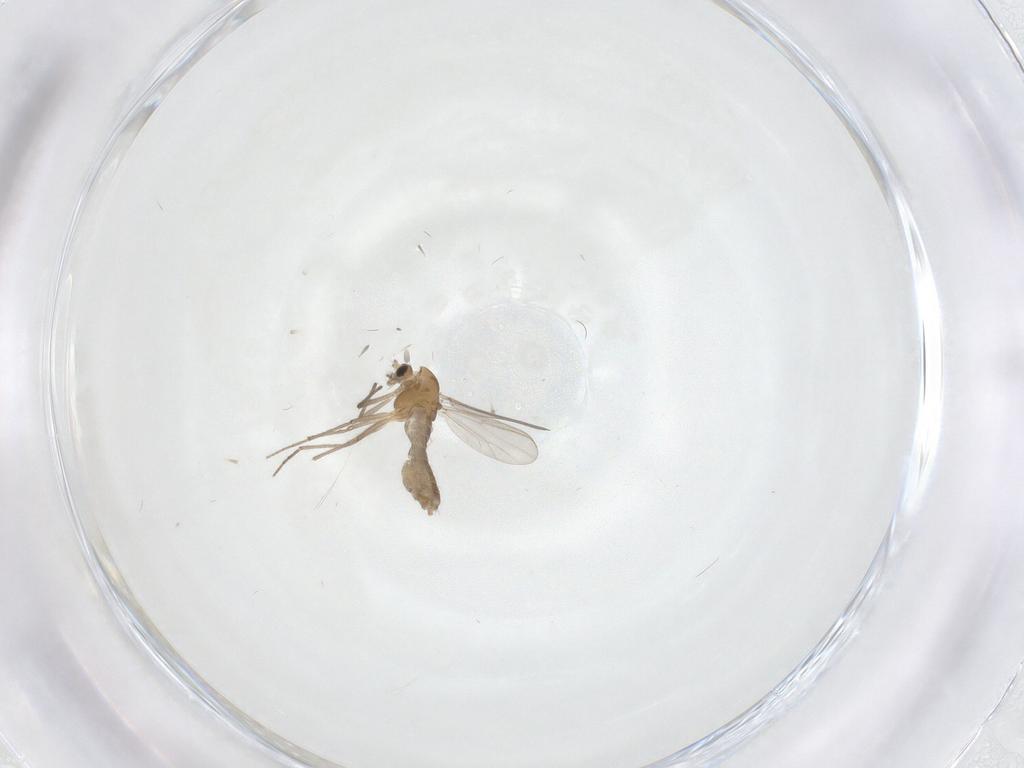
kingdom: Animalia
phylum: Arthropoda
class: Insecta
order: Diptera
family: Chironomidae
